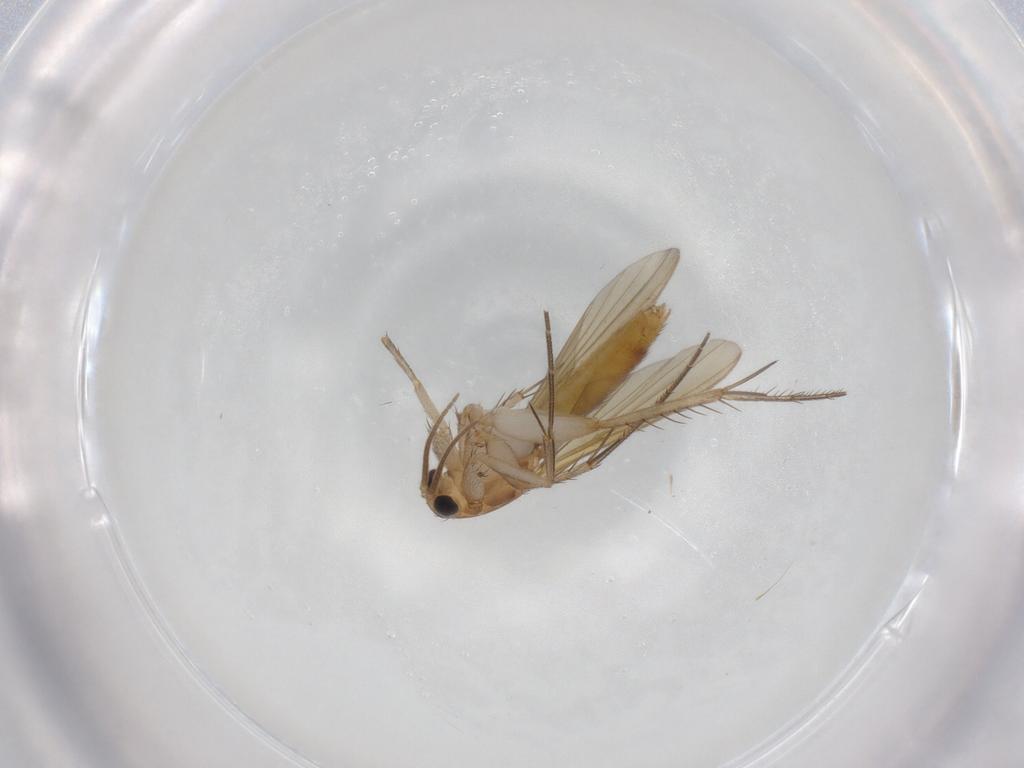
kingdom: Animalia
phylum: Arthropoda
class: Insecta
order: Diptera
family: Mycetophilidae
